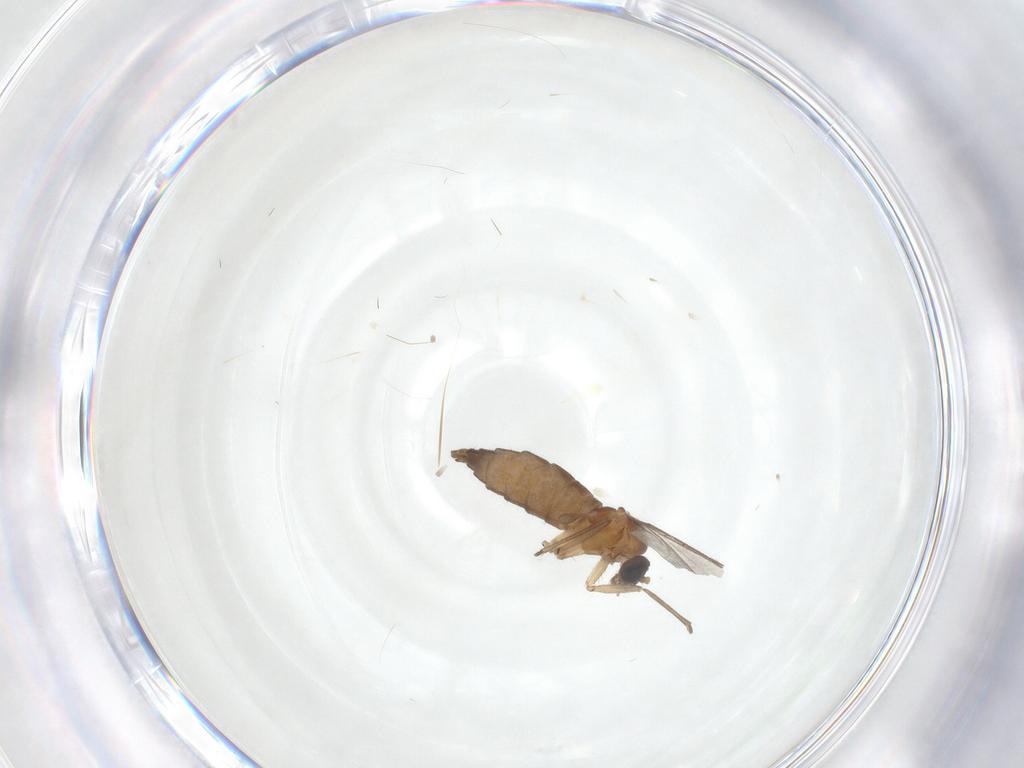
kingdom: Animalia
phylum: Arthropoda
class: Insecta
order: Diptera
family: Sciaridae
